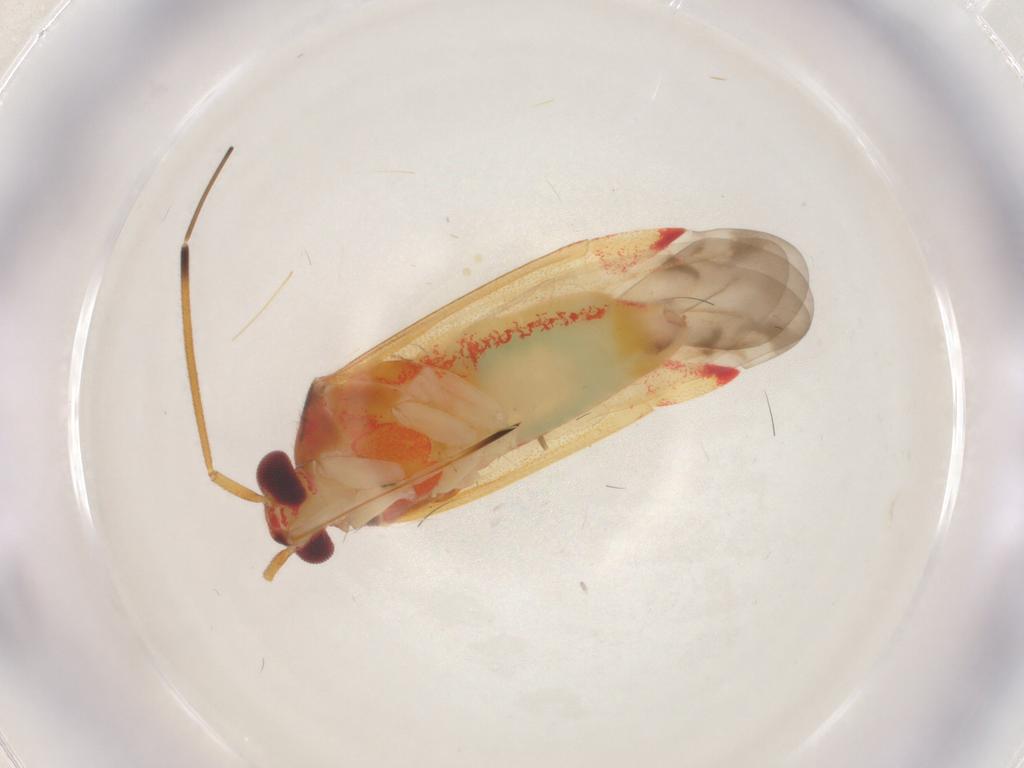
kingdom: Animalia
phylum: Arthropoda
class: Insecta
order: Hemiptera
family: Miridae
